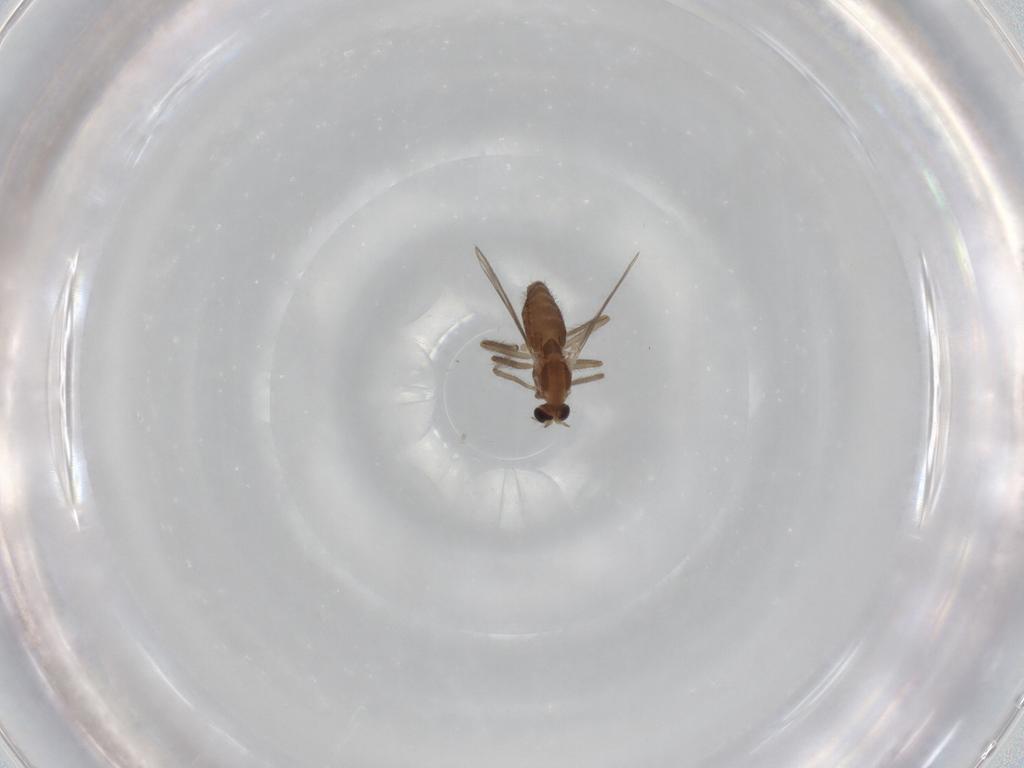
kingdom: Animalia
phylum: Arthropoda
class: Insecta
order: Diptera
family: Chironomidae
